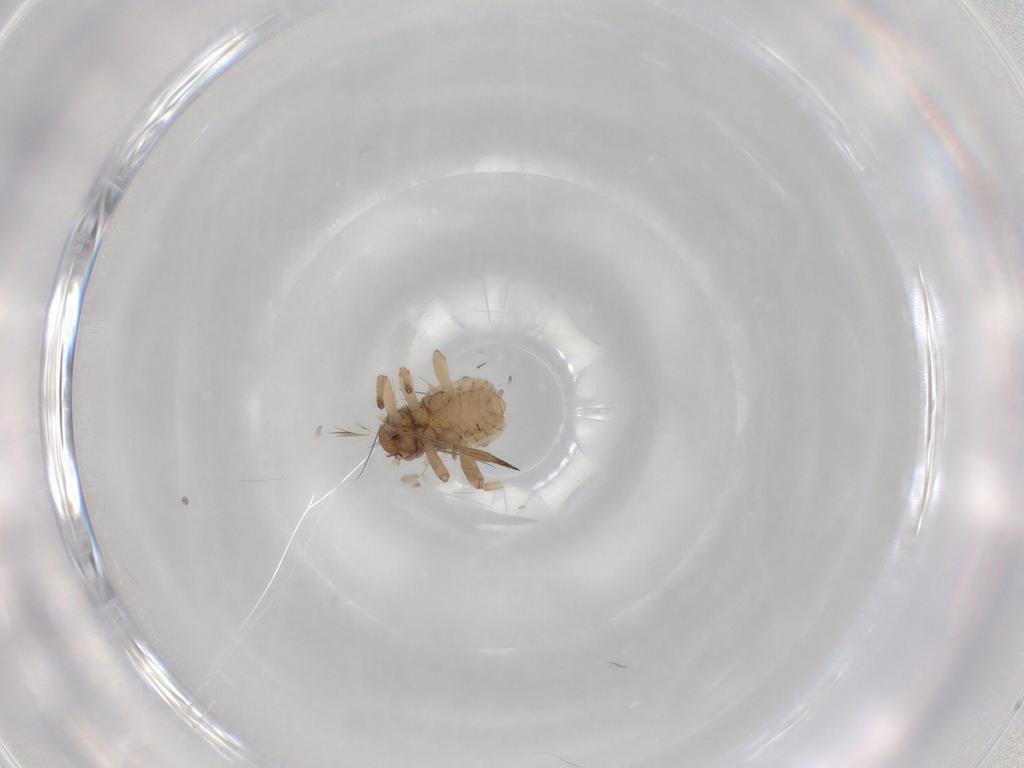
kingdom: Animalia
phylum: Arthropoda
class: Insecta
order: Hemiptera
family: Aphididae
